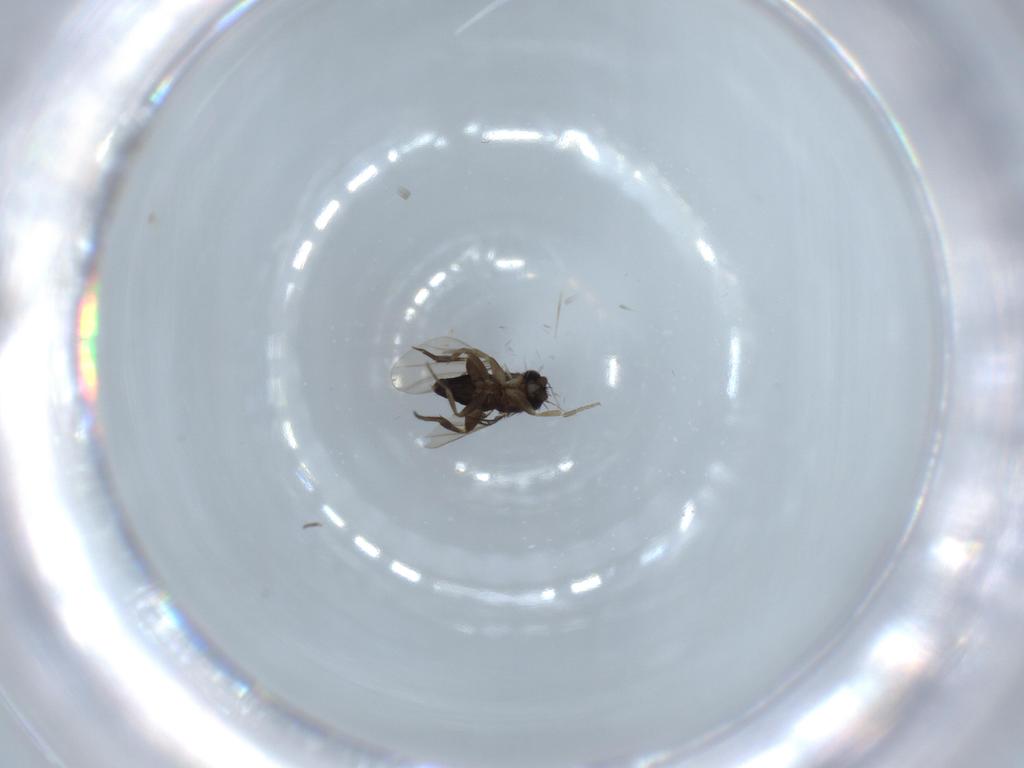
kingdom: Animalia
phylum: Arthropoda
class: Insecta
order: Diptera
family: Phoridae
